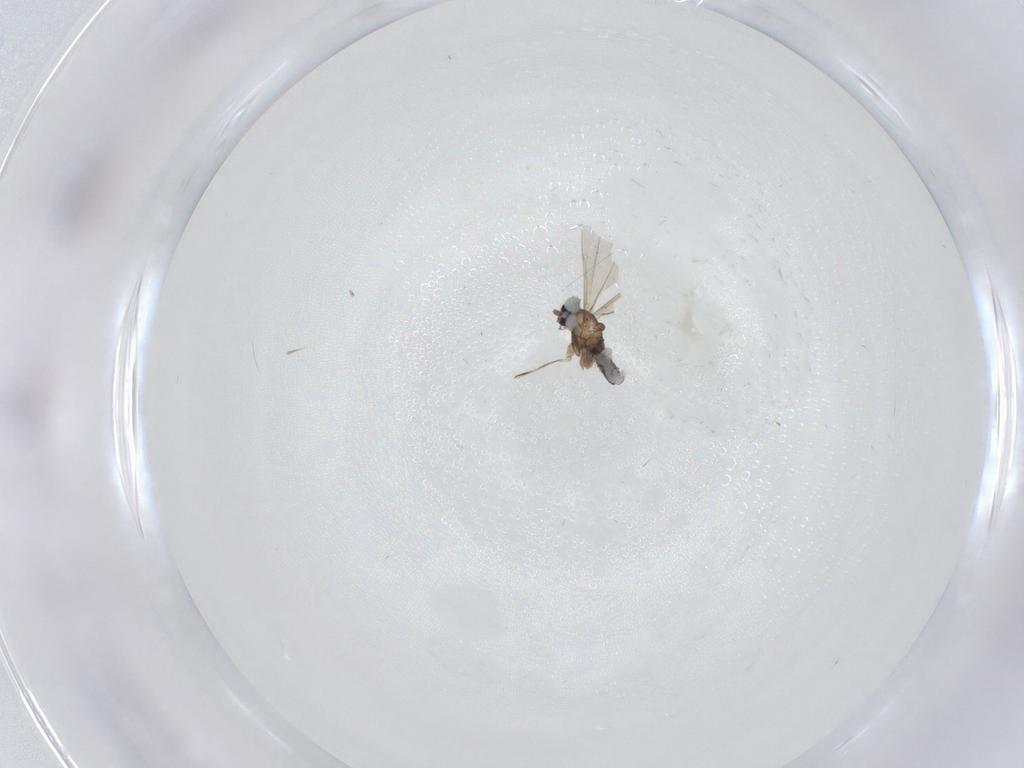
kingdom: Animalia
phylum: Arthropoda
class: Insecta
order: Diptera
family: Cecidomyiidae
